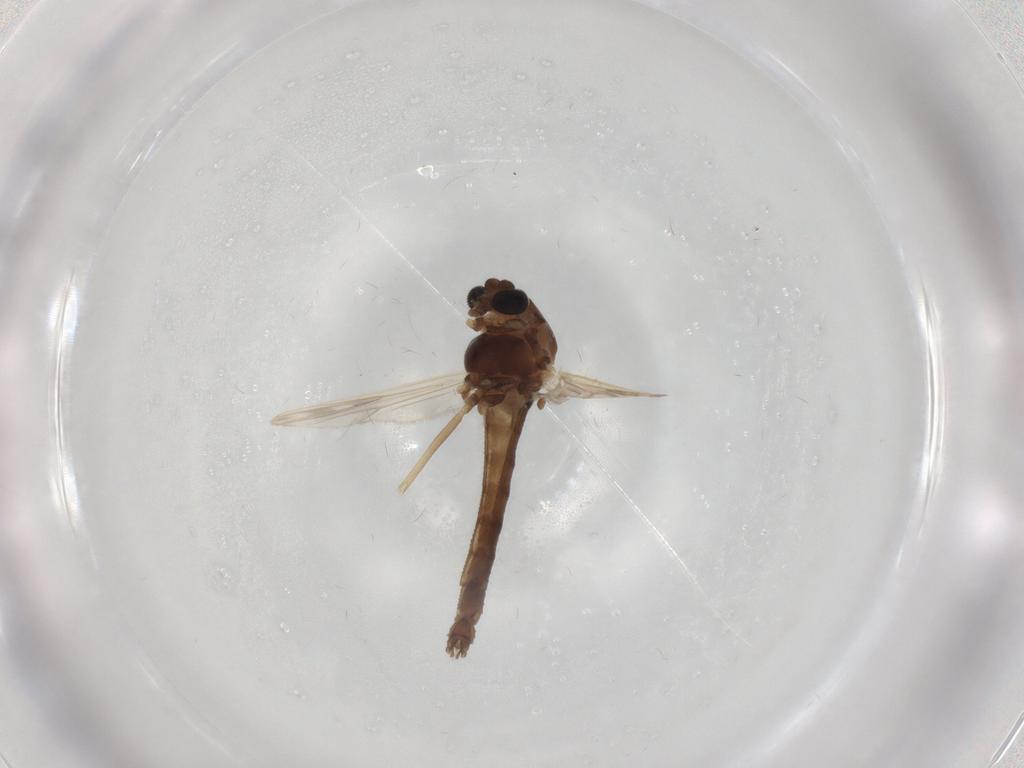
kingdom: Animalia
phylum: Arthropoda
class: Insecta
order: Diptera
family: Chironomidae
